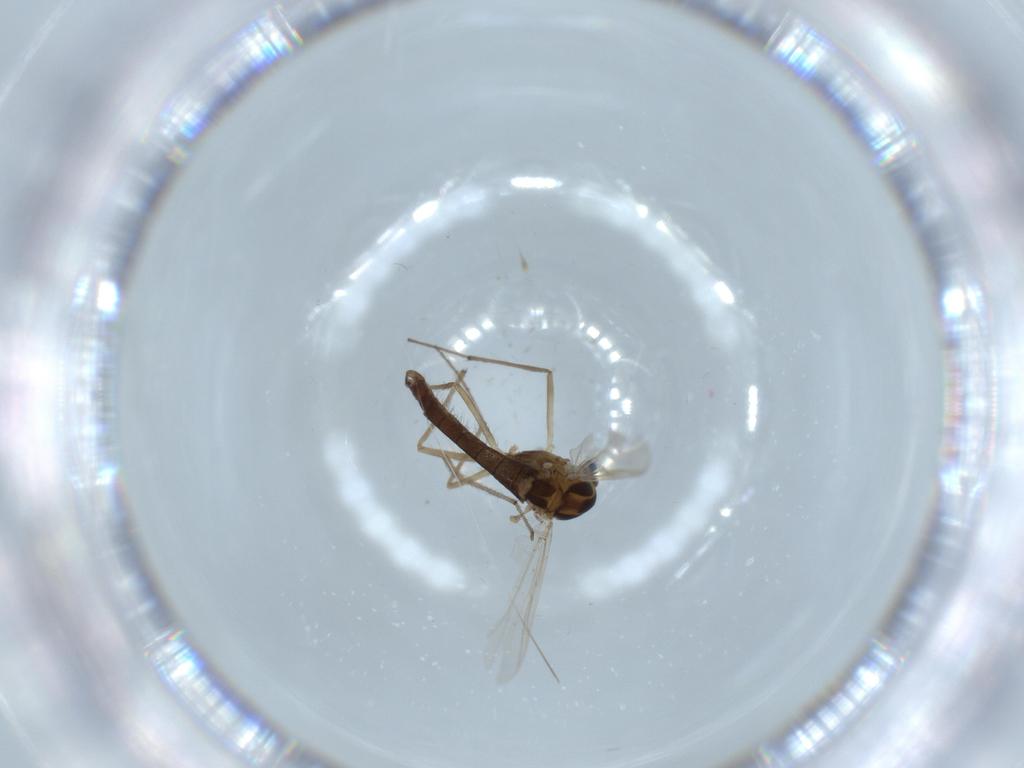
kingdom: Animalia
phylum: Arthropoda
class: Insecta
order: Diptera
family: Chironomidae
